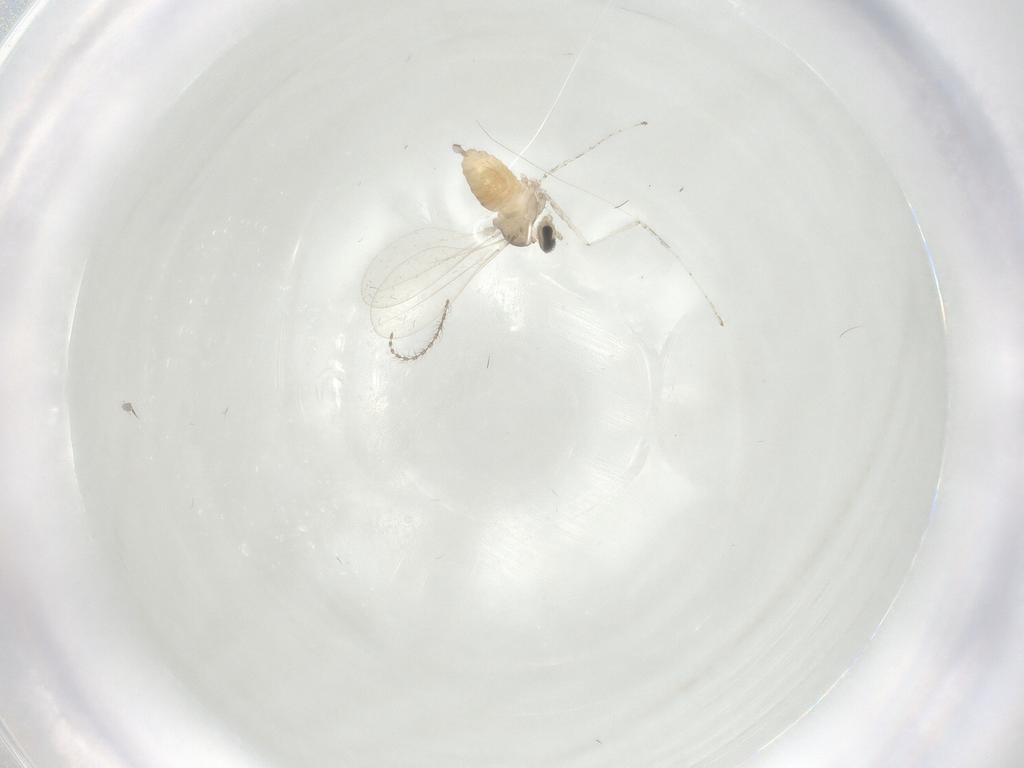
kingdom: Animalia
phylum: Arthropoda
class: Insecta
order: Diptera
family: Cecidomyiidae
